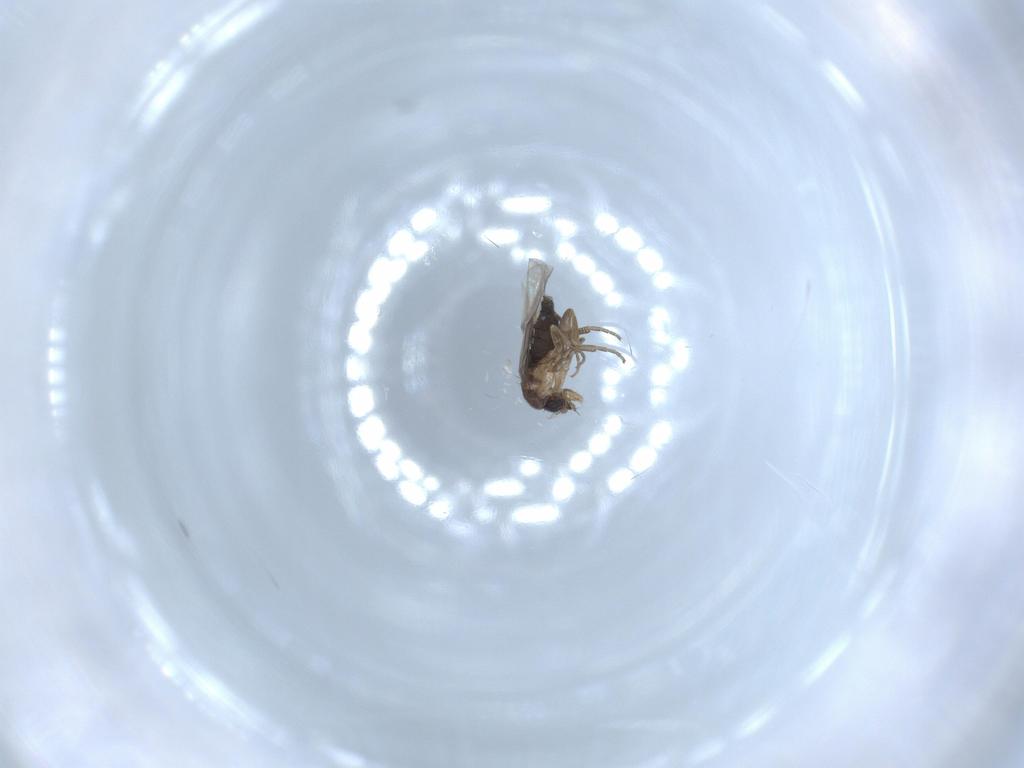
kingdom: Animalia
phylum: Arthropoda
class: Insecta
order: Diptera
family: Phoridae
